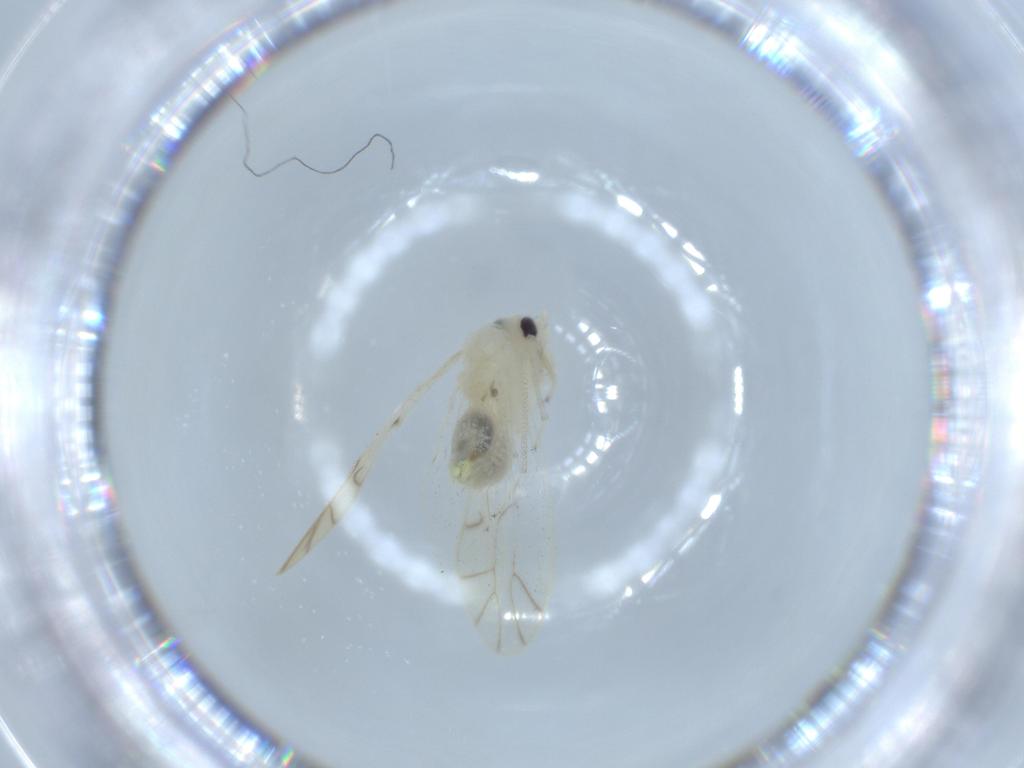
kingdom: Animalia
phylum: Arthropoda
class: Insecta
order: Psocodea
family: Caeciliusidae
